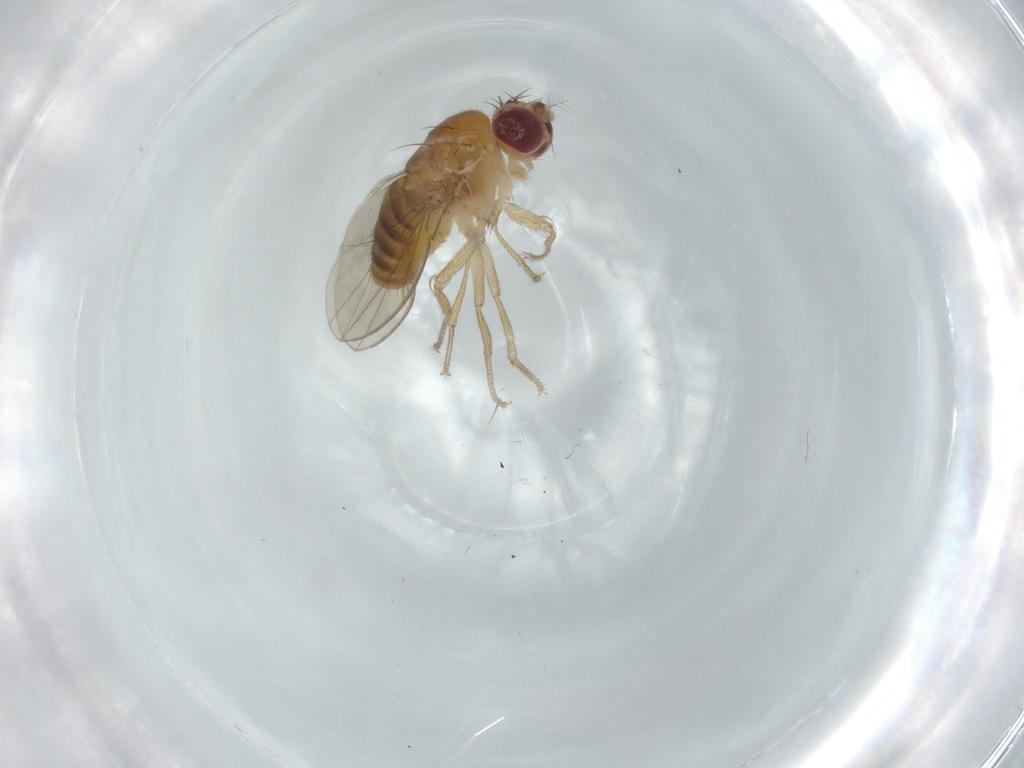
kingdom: Animalia
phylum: Arthropoda
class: Insecta
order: Diptera
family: Drosophilidae
